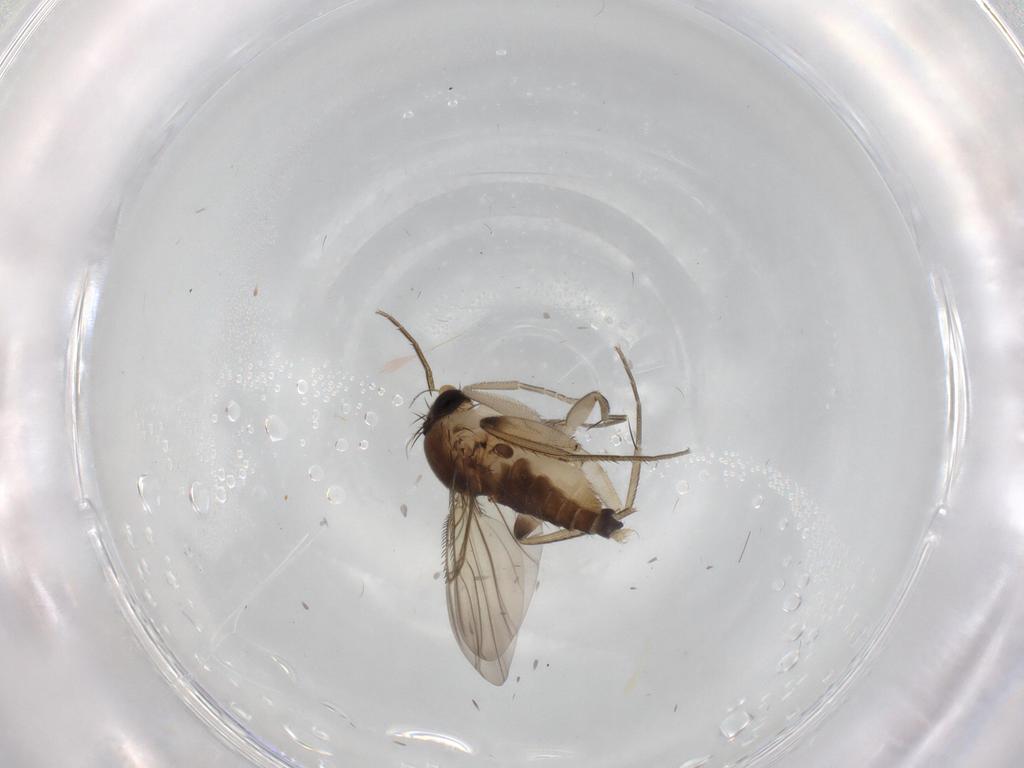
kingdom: Animalia
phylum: Arthropoda
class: Insecta
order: Diptera
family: Phoridae
